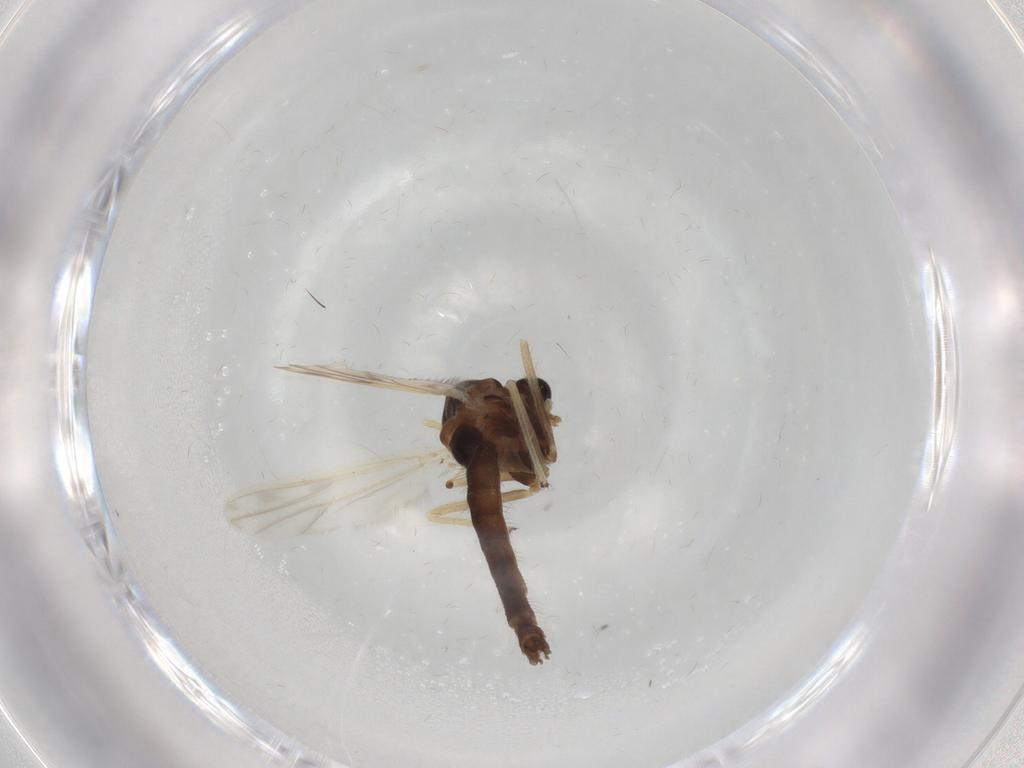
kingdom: Animalia
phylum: Arthropoda
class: Insecta
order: Diptera
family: Chironomidae
